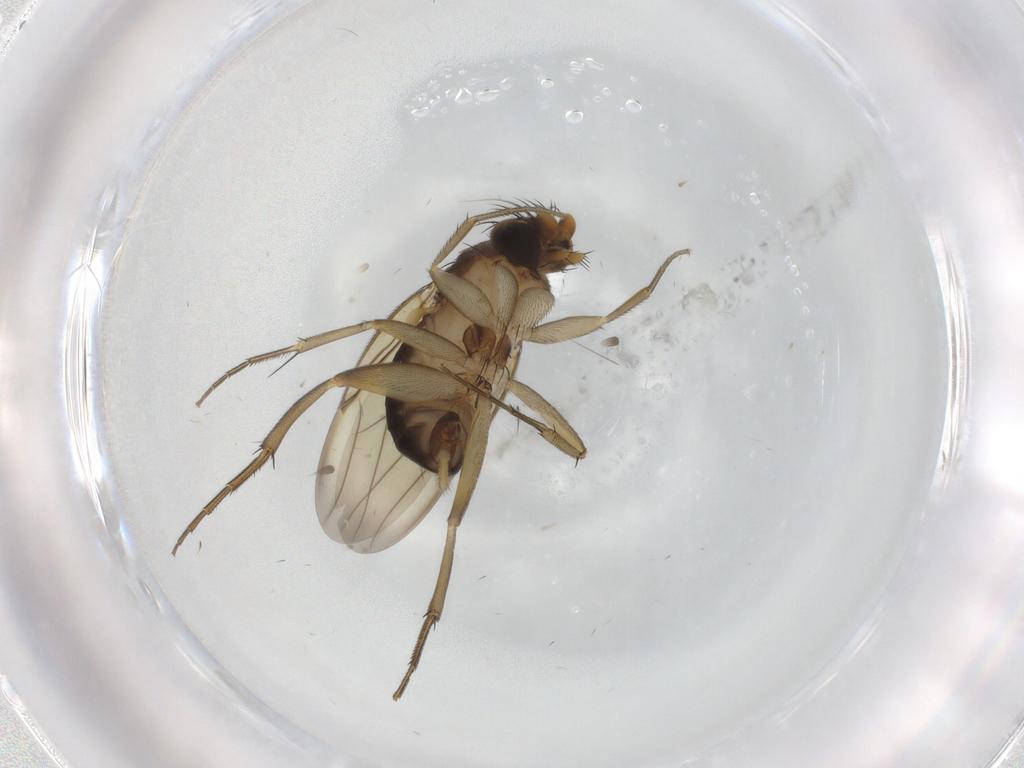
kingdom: Animalia
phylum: Arthropoda
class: Insecta
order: Diptera
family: Phoridae
